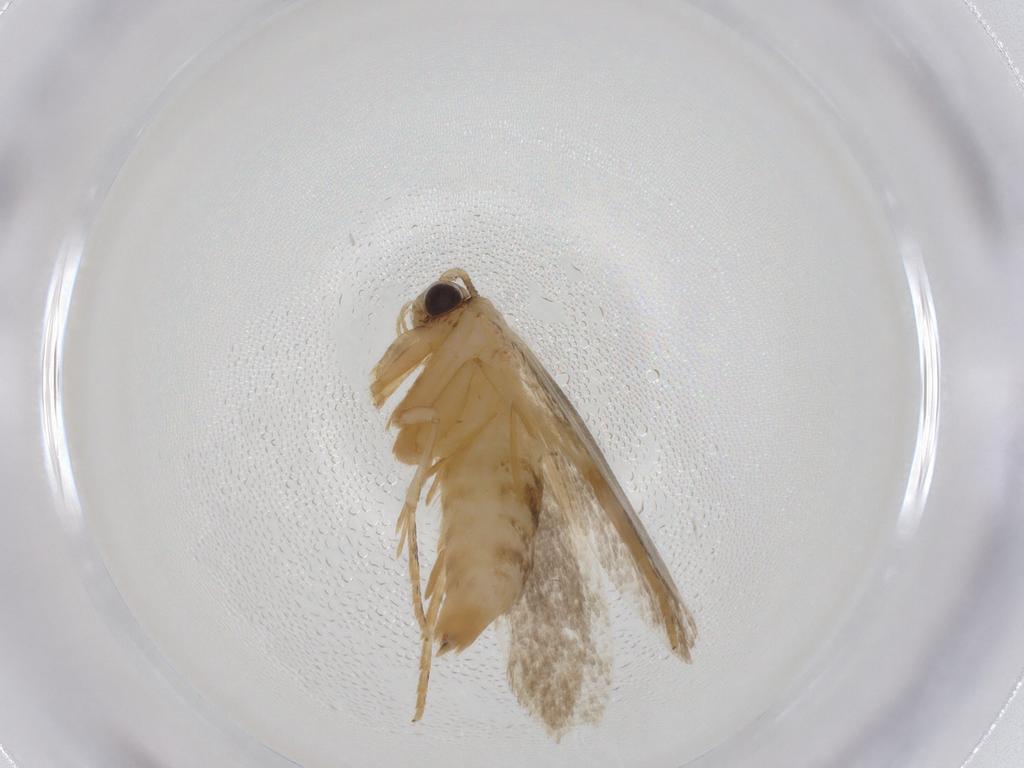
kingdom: Animalia
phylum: Arthropoda
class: Insecta
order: Lepidoptera
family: Tineidae
